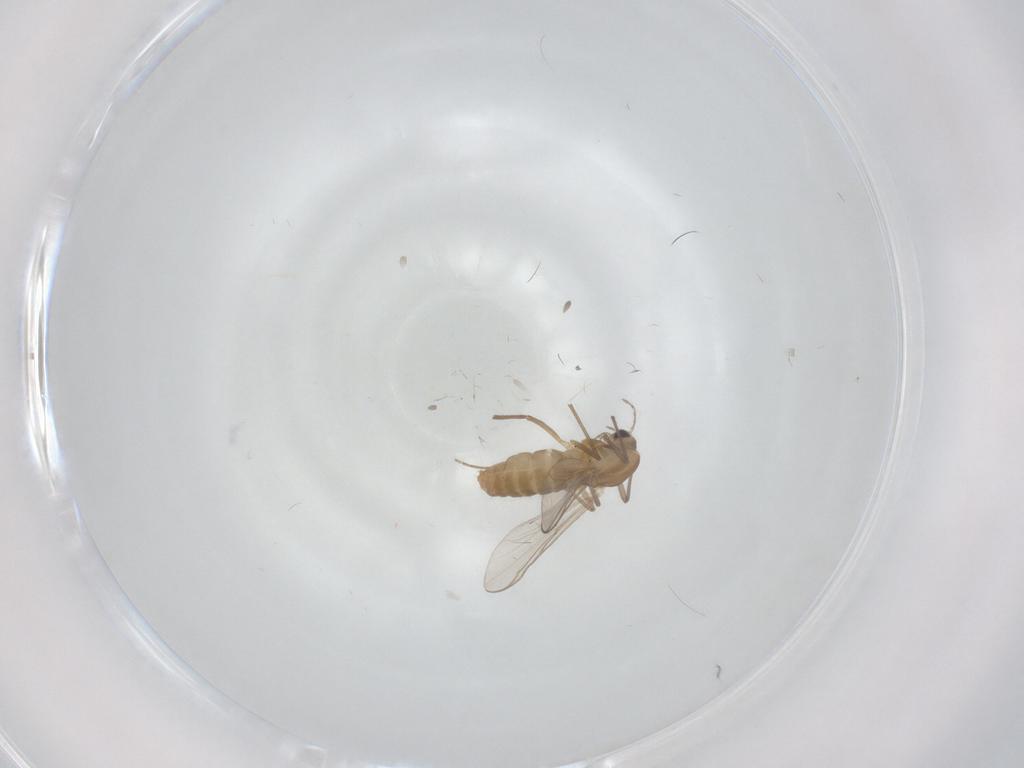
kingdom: Animalia
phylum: Arthropoda
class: Insecta
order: Diptera
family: Chironomidae
